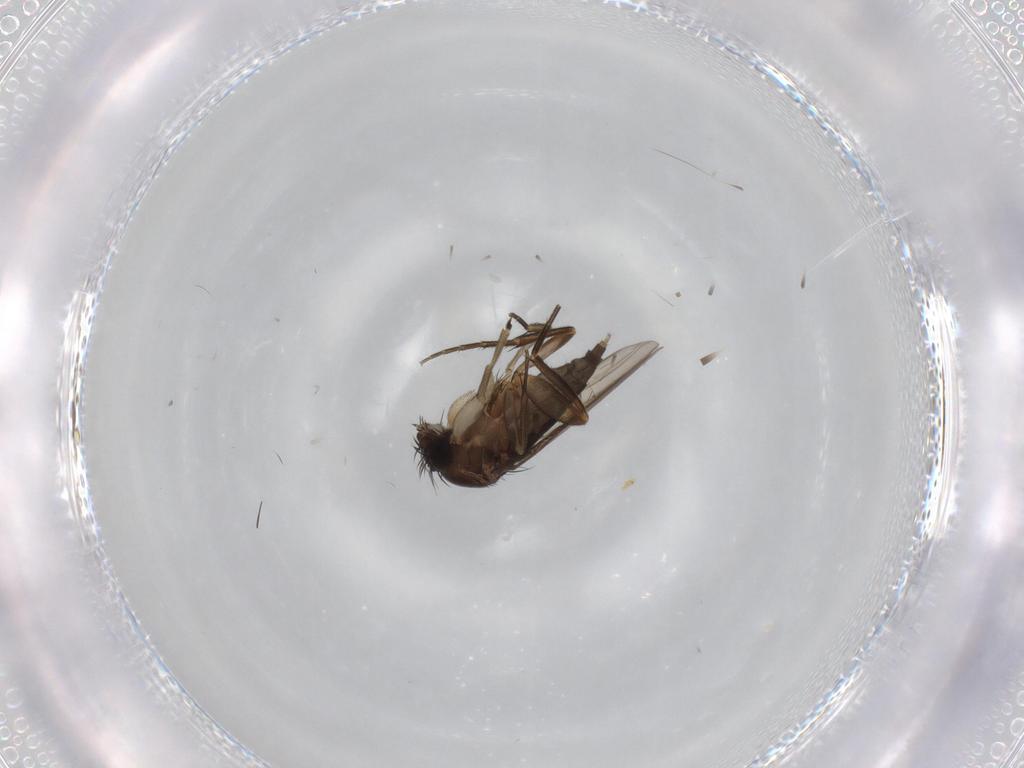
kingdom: Animalia
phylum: Arthropoda
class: Insecta
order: Diptera
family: Phoridae
